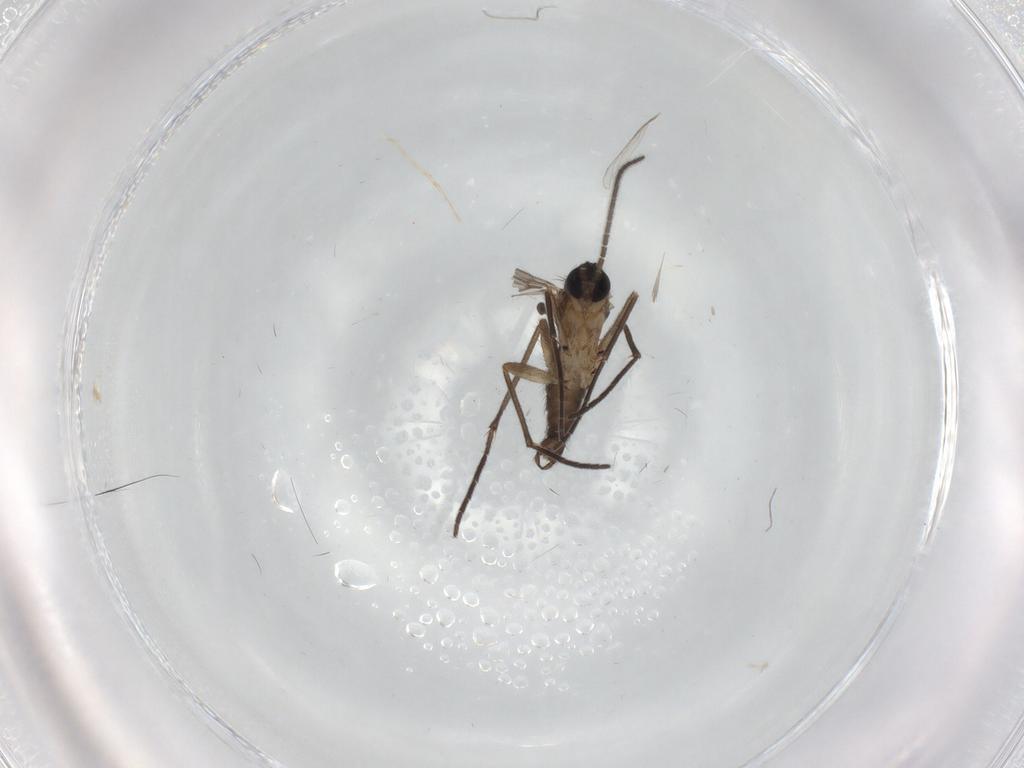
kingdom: Animalia
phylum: Arthropoda
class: Insecta
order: Diptera
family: Sciaridae
